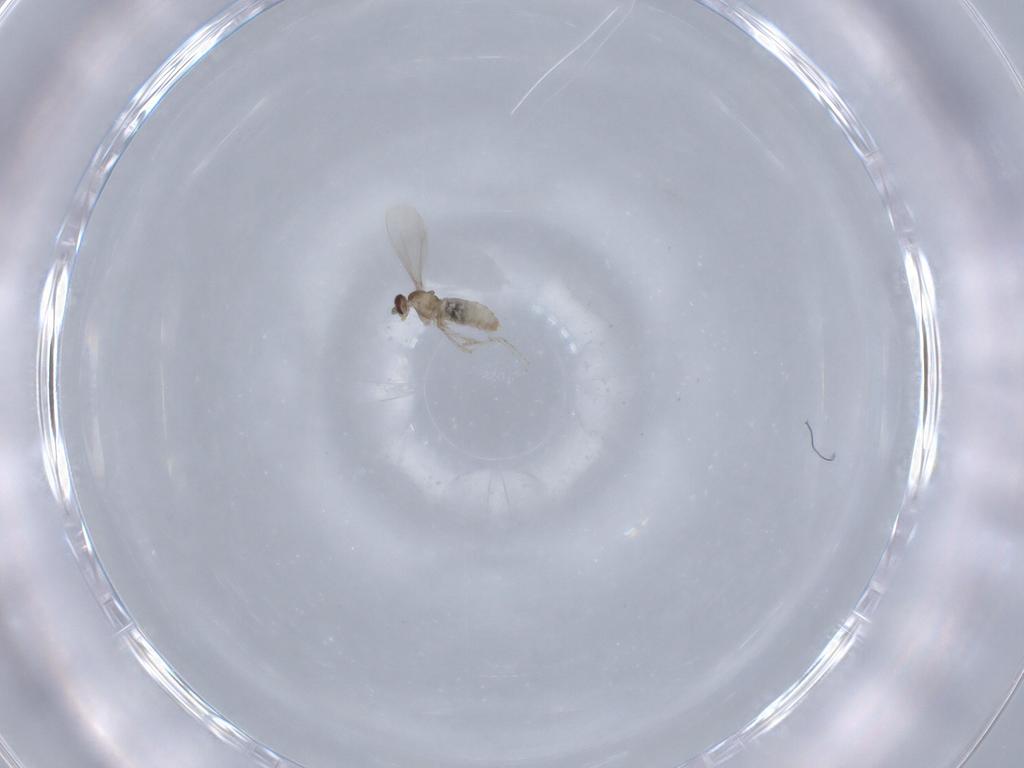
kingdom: Animalia
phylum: Arthropoda
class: Insecta
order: Diptera
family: Cecidomyiidae
